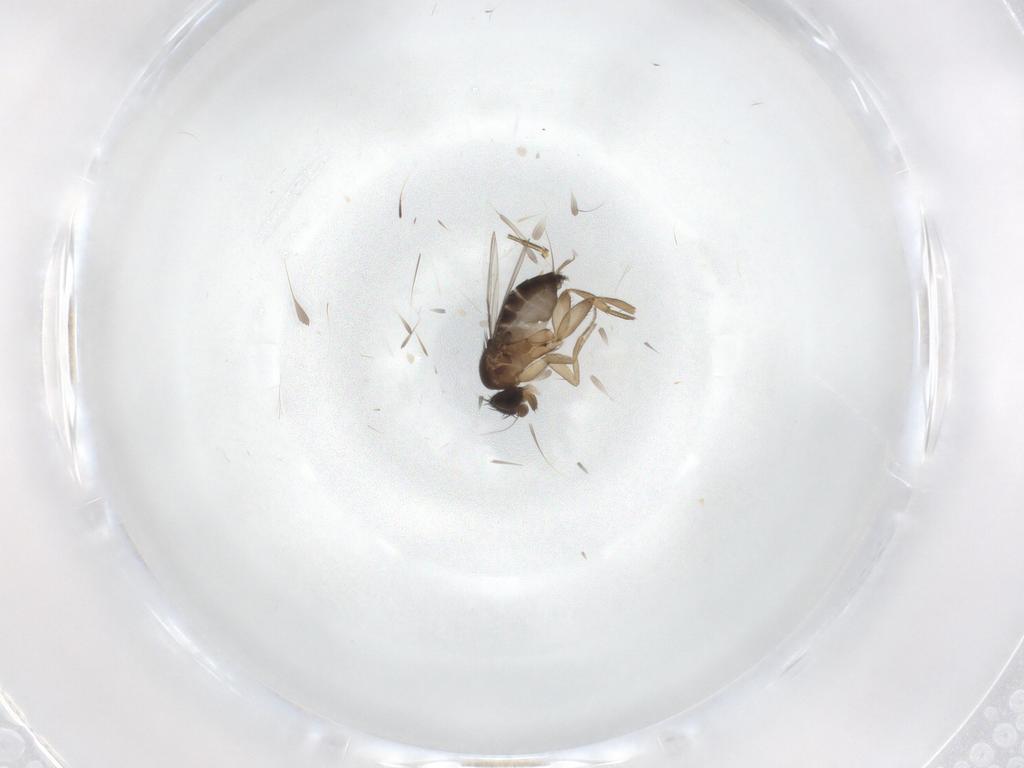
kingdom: Animalia
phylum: Arthropoda
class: Insecta
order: Diptera
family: Phoridae
